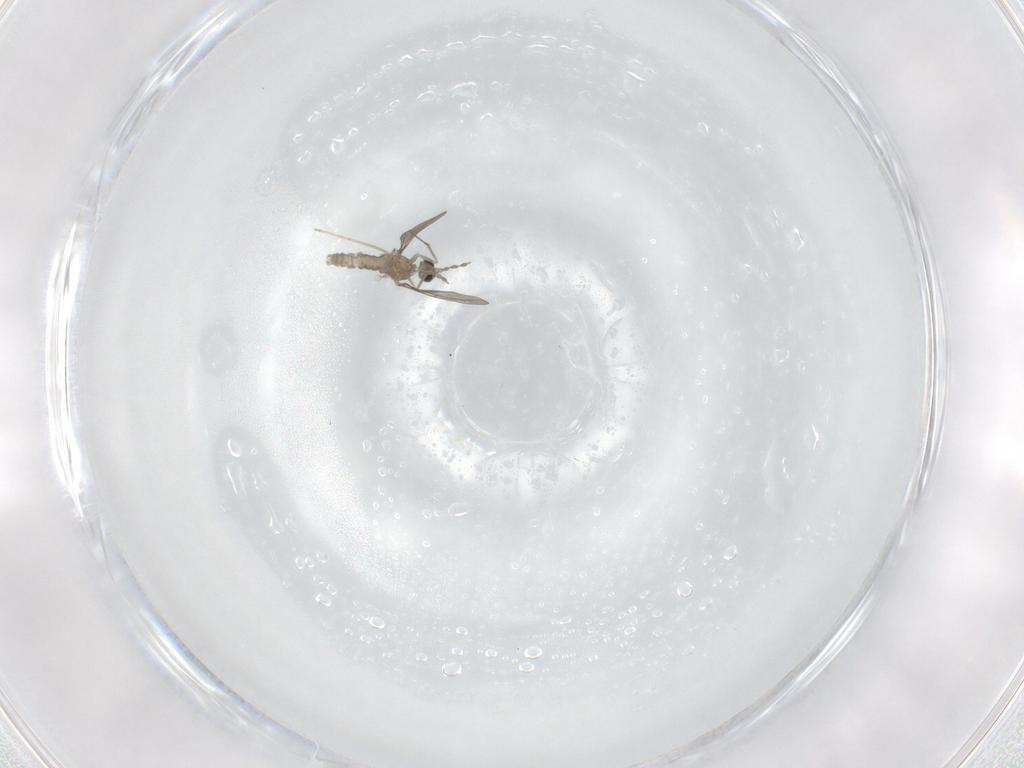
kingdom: Animalia
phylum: Arthropoda
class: Insecta
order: Diptera
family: Cecidomyiidae
